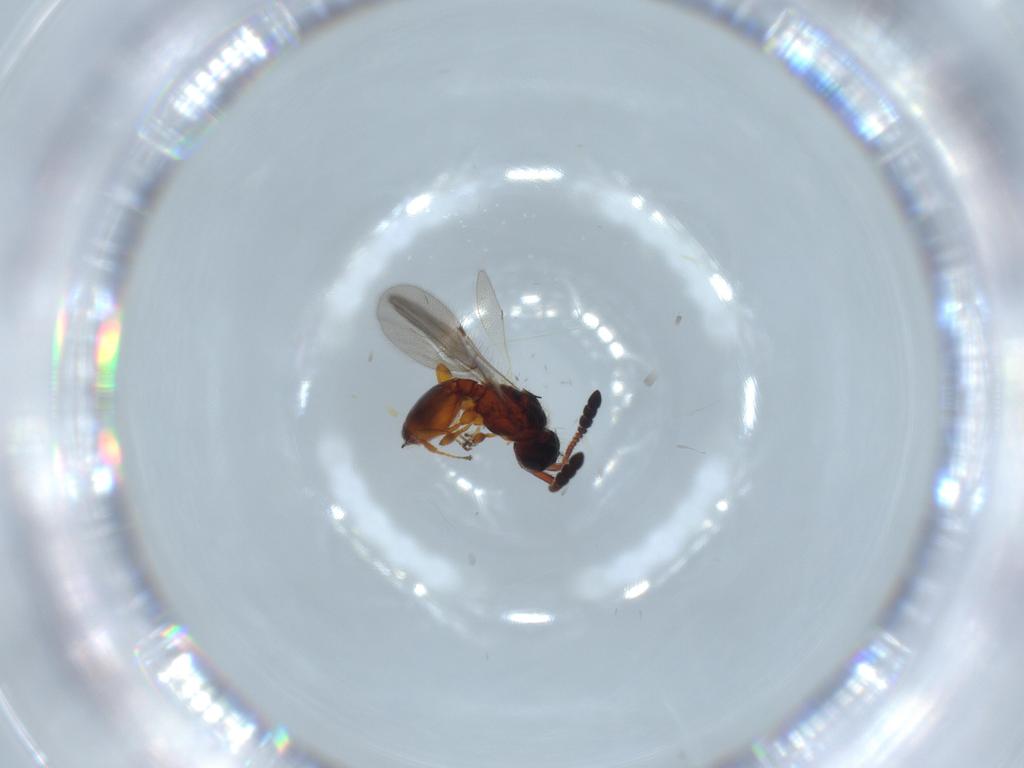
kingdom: Animalia
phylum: Arthropoda
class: Insecta
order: Hymenoptera
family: Diapriidae
